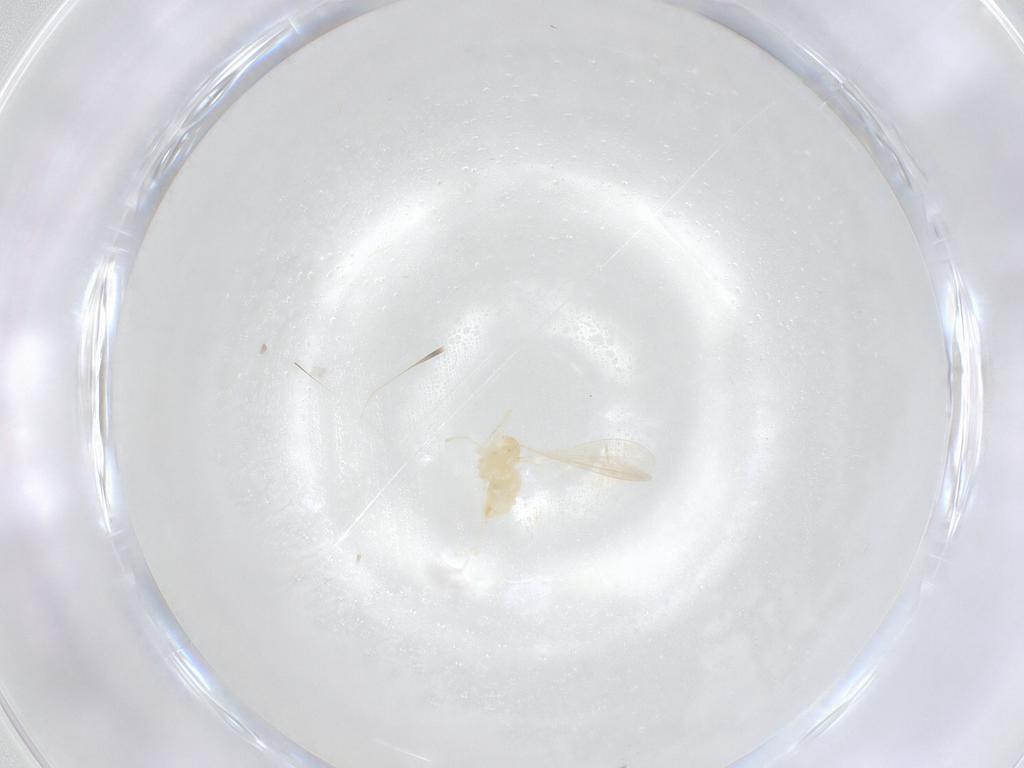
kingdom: Animalia
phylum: Arthropoda
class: Insecta
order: Diptera
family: Cecidomyiidae
